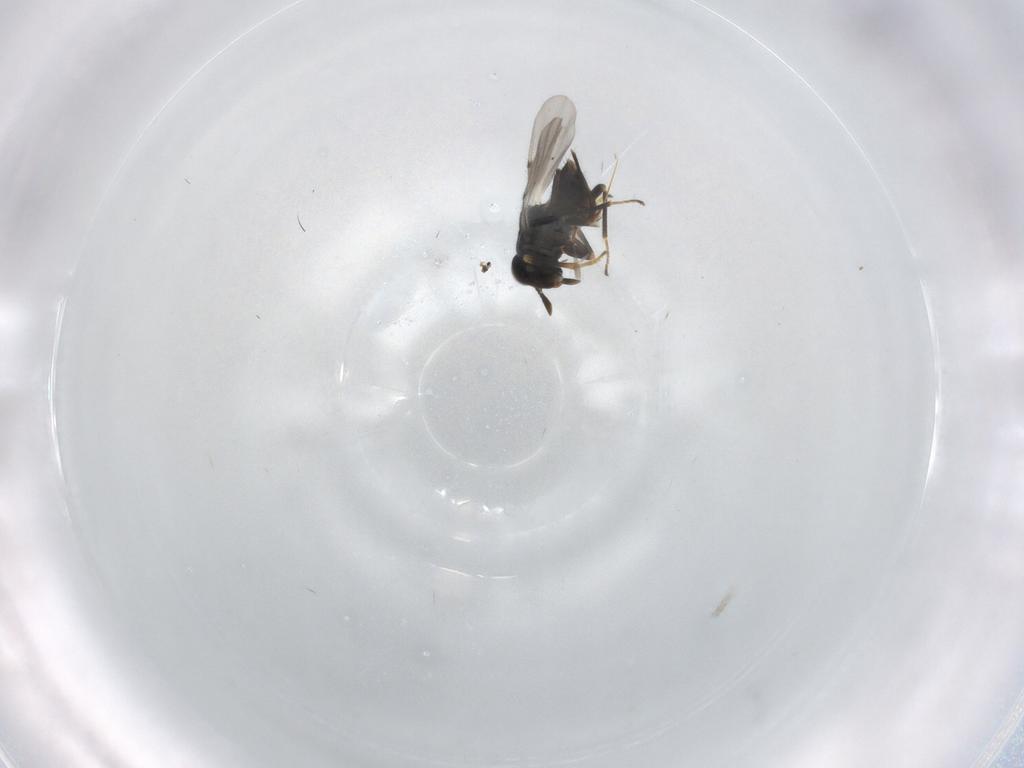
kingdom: Animalia
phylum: Arthropoda
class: Insecta
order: Hymenoptera
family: Encyrtidae
